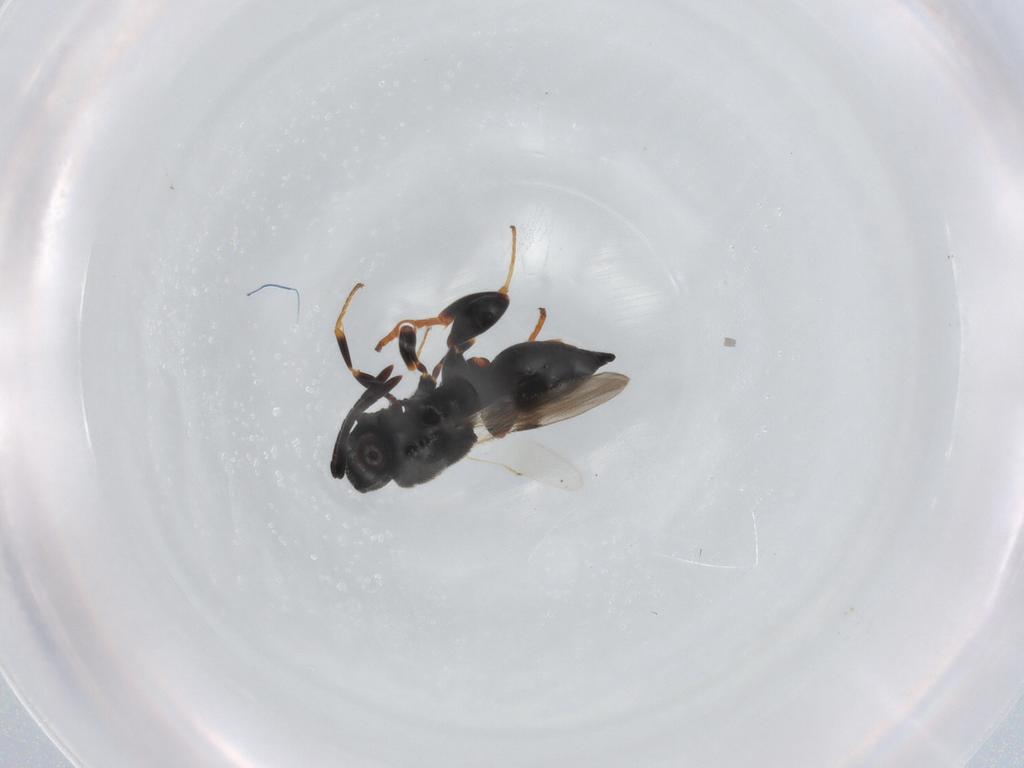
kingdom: Animalia
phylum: Arthropoda
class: Insecta
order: Hymenoptera
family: Chalcididae
